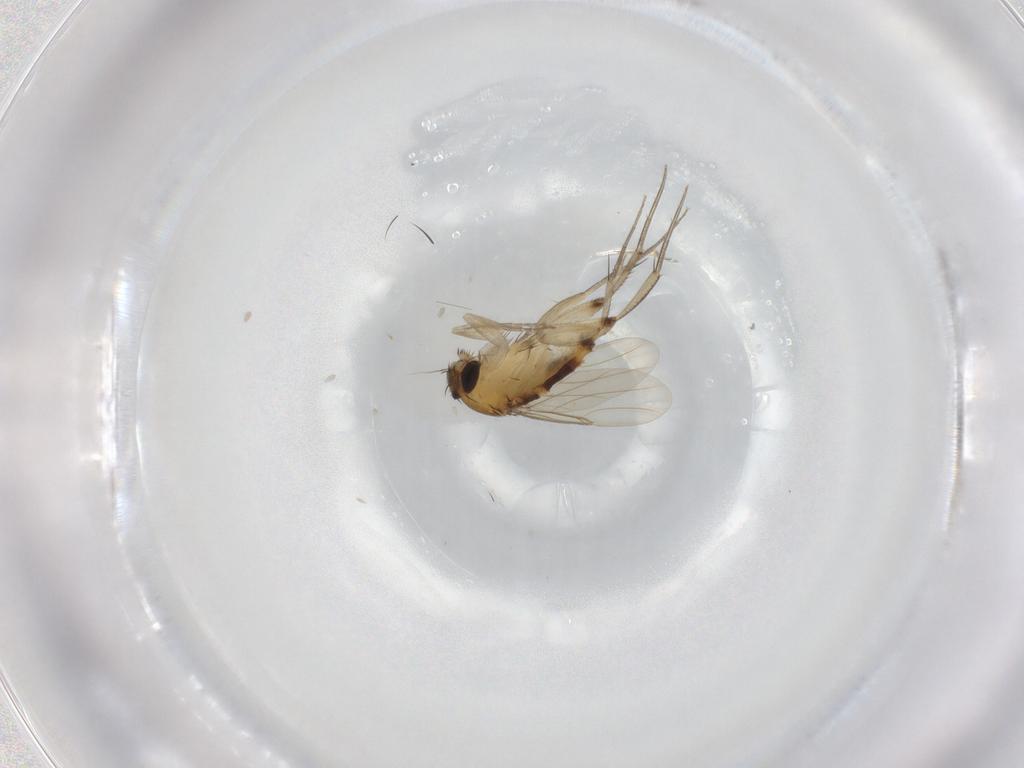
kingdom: Animalia
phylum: Arthropoda
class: Insecta
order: Diptera
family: Phoridae
